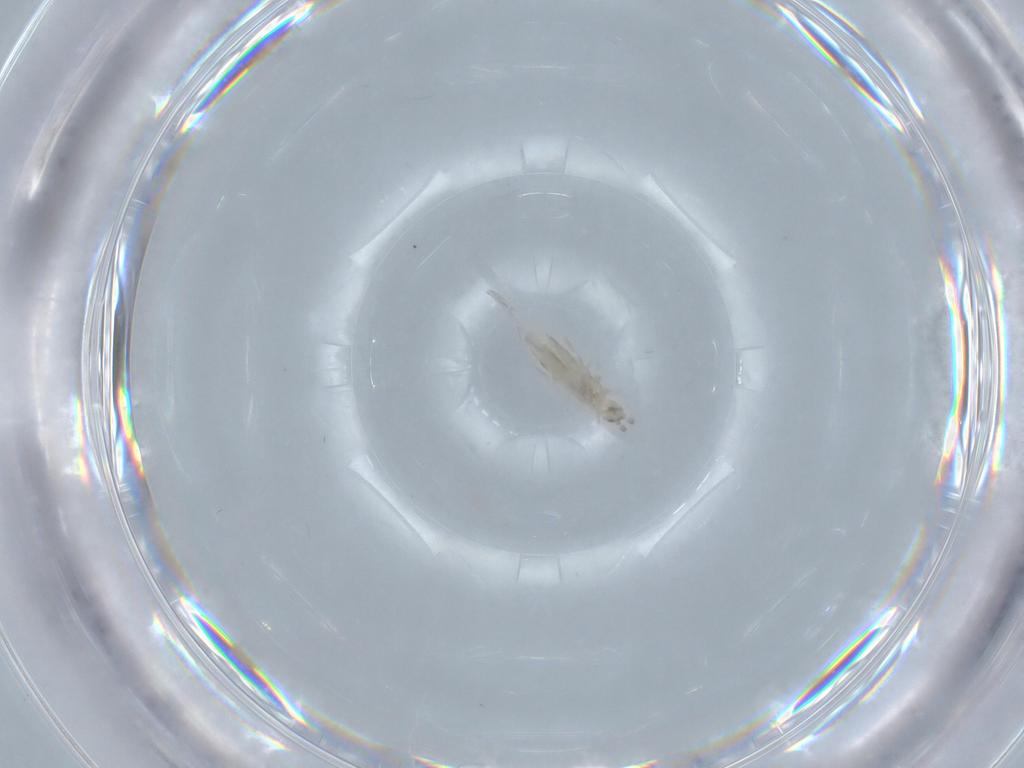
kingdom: Animalia
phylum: Arthropoda
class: Collembola
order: Entomobryomorpha
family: Entomobryidae
